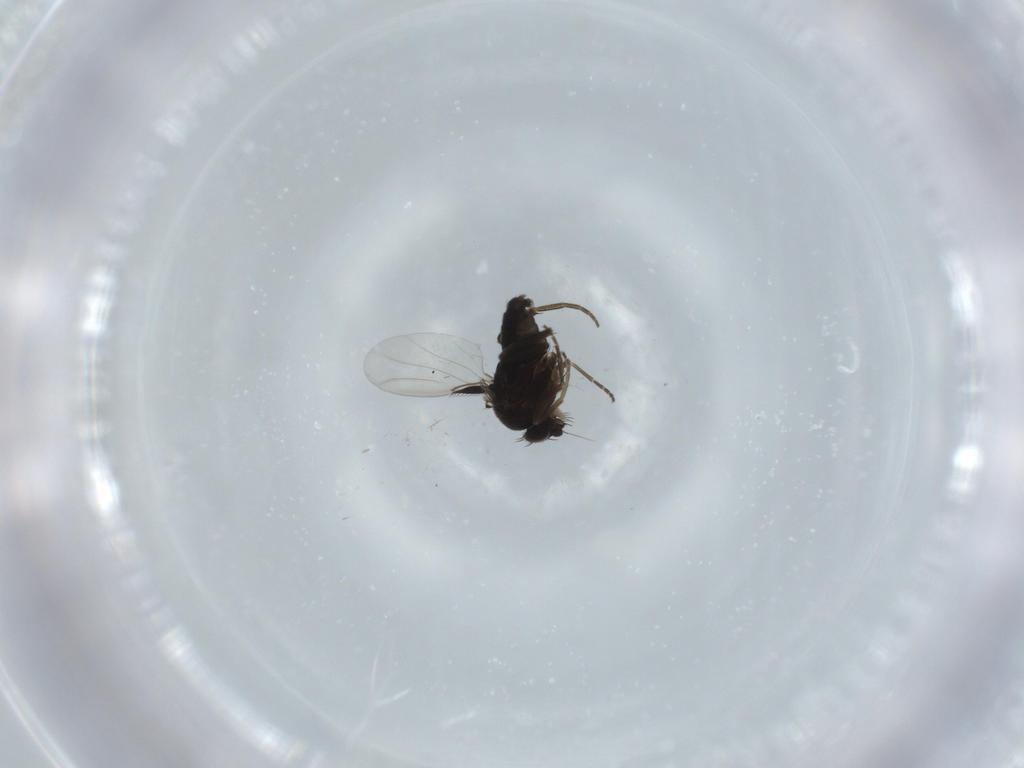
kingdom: Animalia
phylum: Arthropoda
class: Insecta
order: Diptera
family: Phoridae
